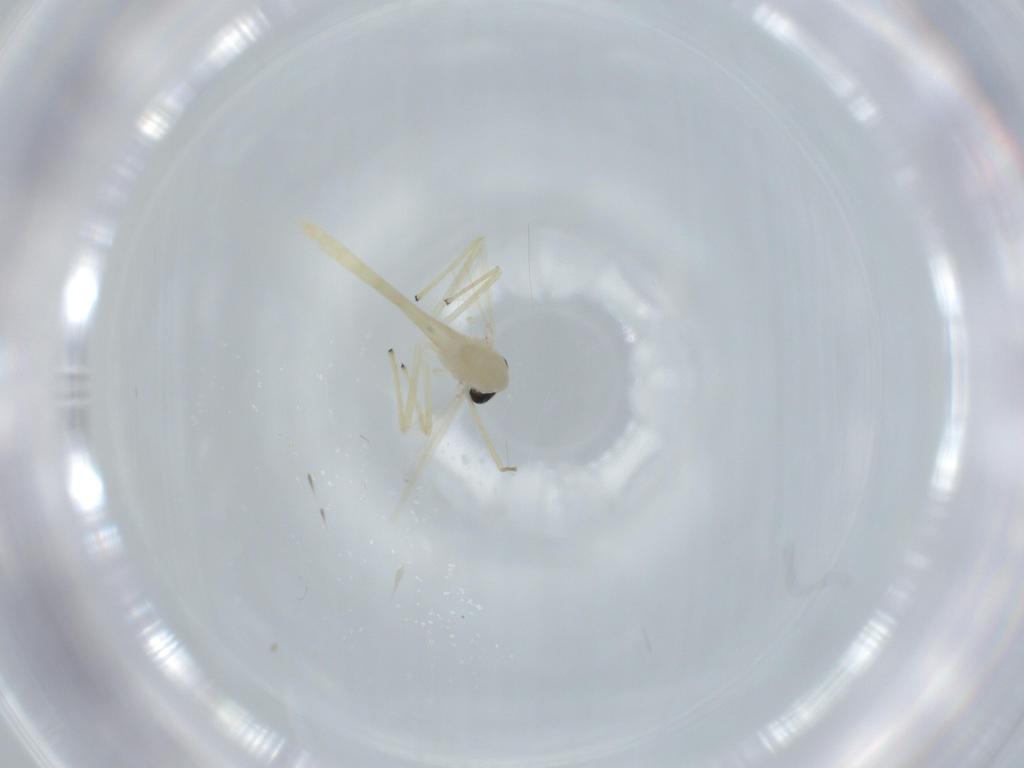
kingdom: Animalia
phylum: Arthropoda
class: Insecta
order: Diptera
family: Chironomidae
